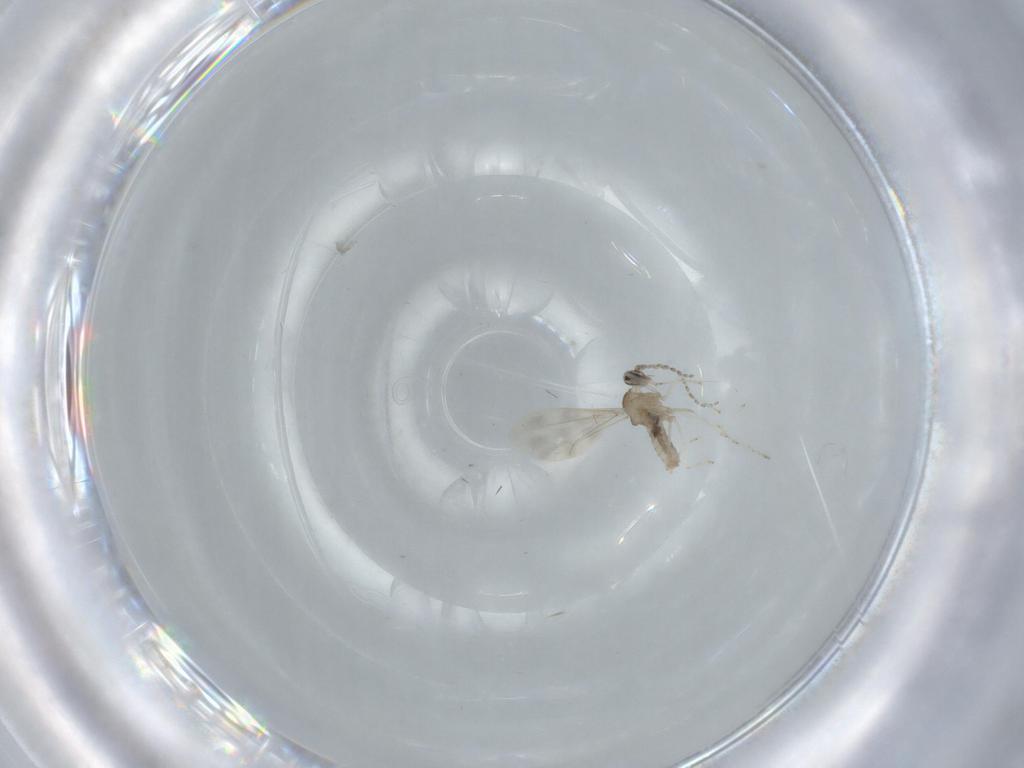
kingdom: Animalia
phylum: Arthropoda
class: Insecta
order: Diptera
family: Cecidomyiidae
